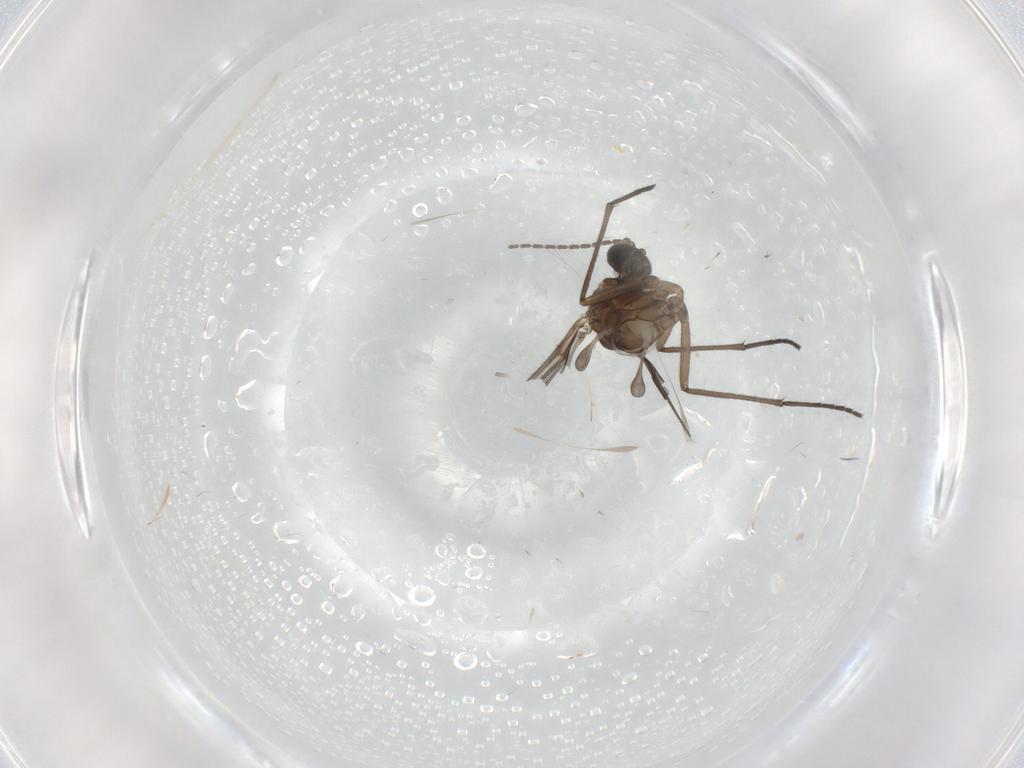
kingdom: Animalia
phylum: Arthropoda
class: Insecta
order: Diptera
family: Sciaridae
